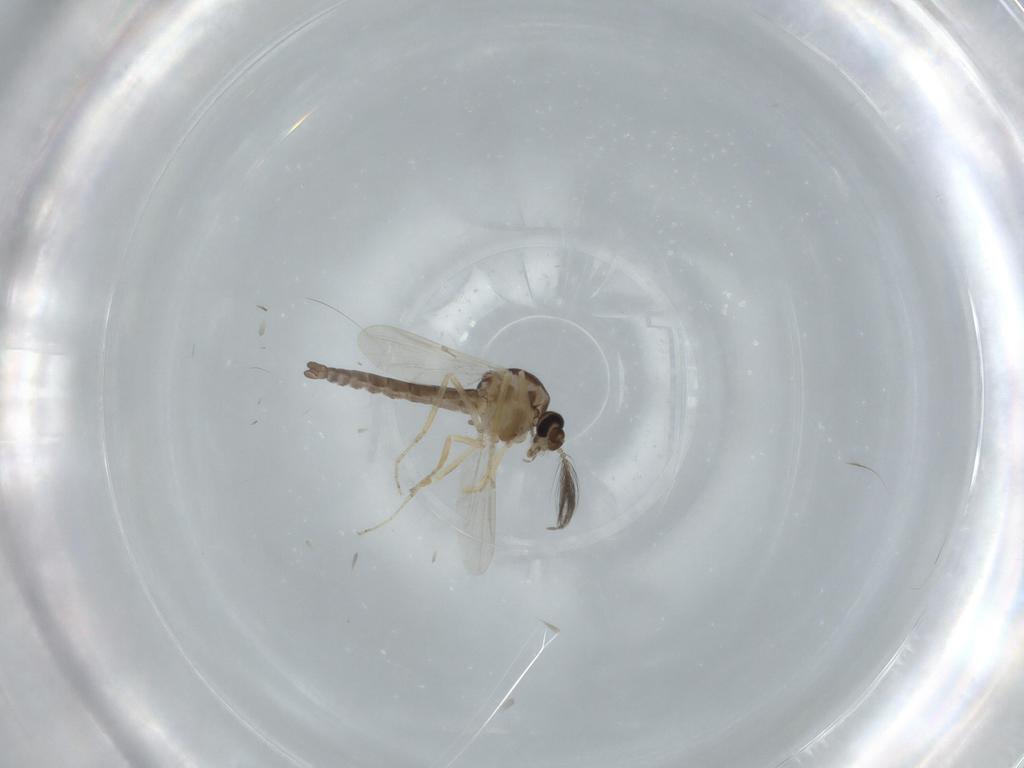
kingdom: Animalia
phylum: Arthropoda
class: Insecta
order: Diptera
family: Ceratopogonidae
